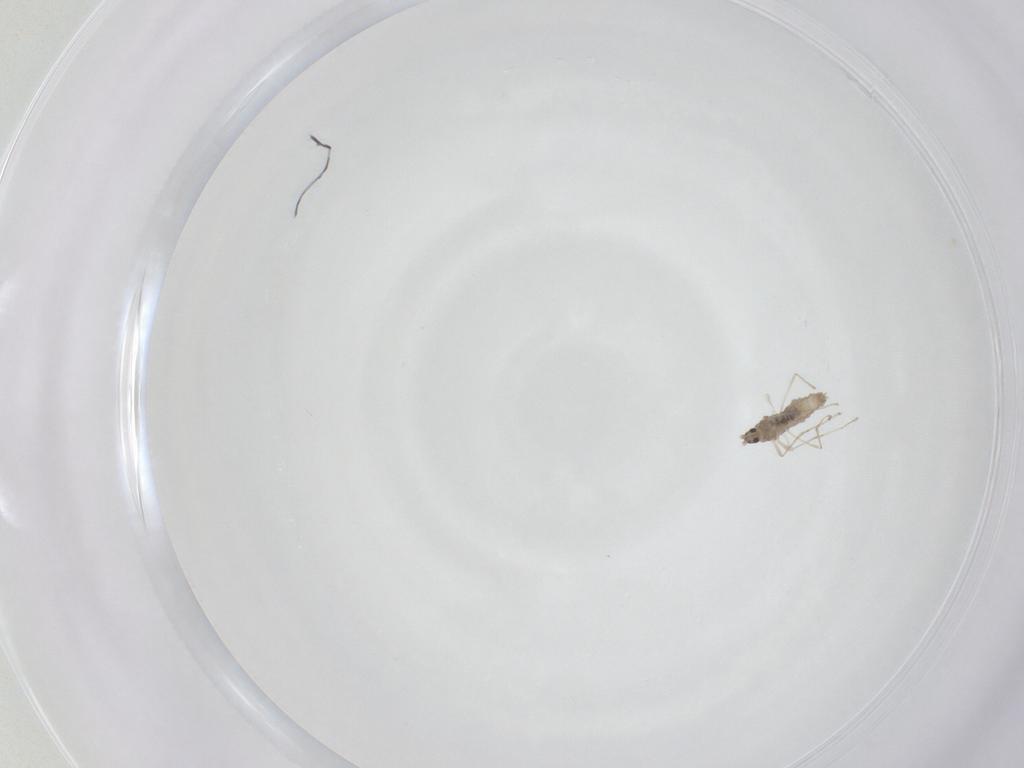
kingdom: Animalia
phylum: Arthropoda
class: Insecta
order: Diptera
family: Cecidomyiidae
